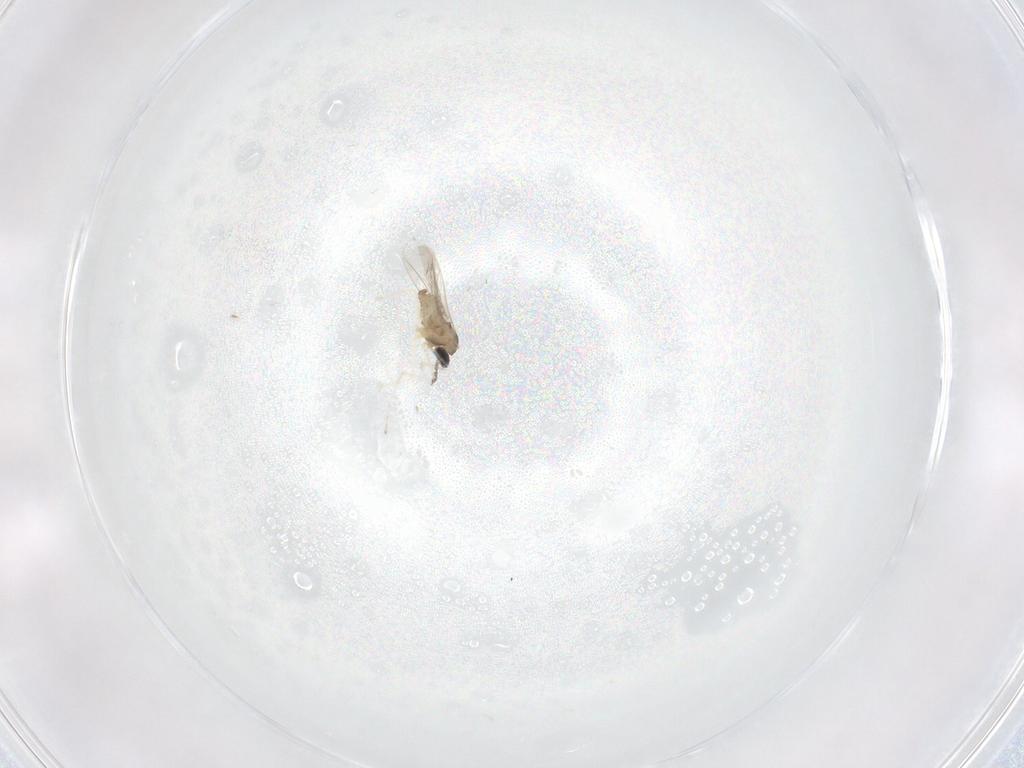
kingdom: Animalia
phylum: Arthropoda
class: Insecta
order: Diptera
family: Cecidomyiidae
